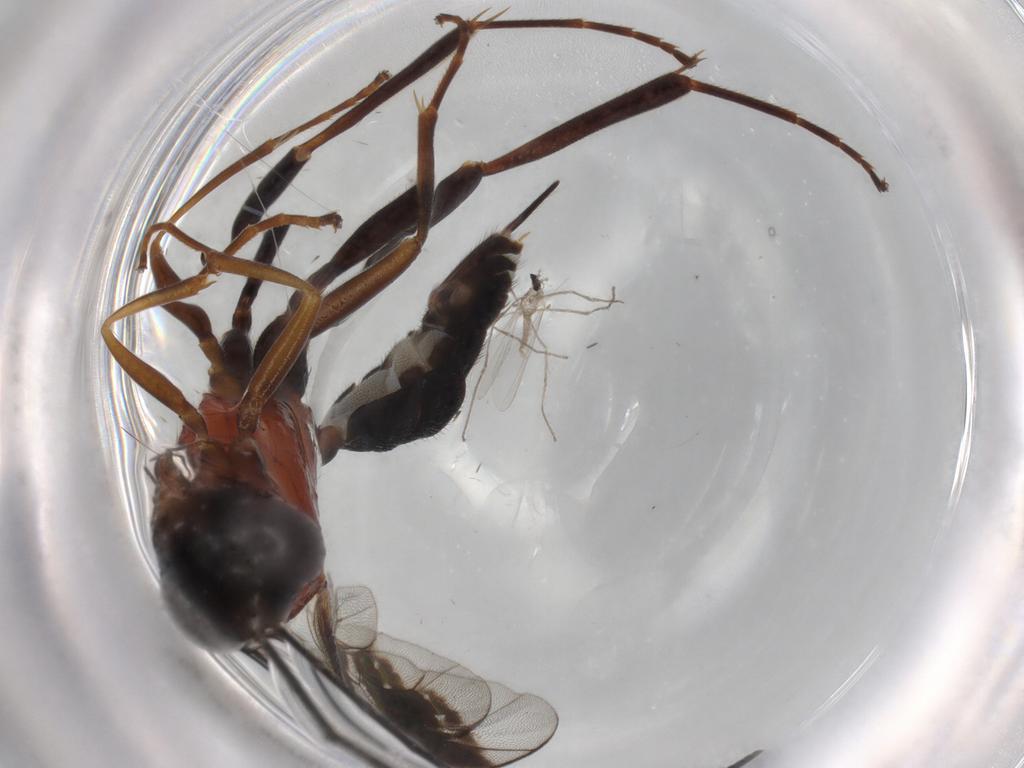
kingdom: Animalia
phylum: Arthropoda
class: Insecta
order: Hymenoptera
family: Ichneumonidae
